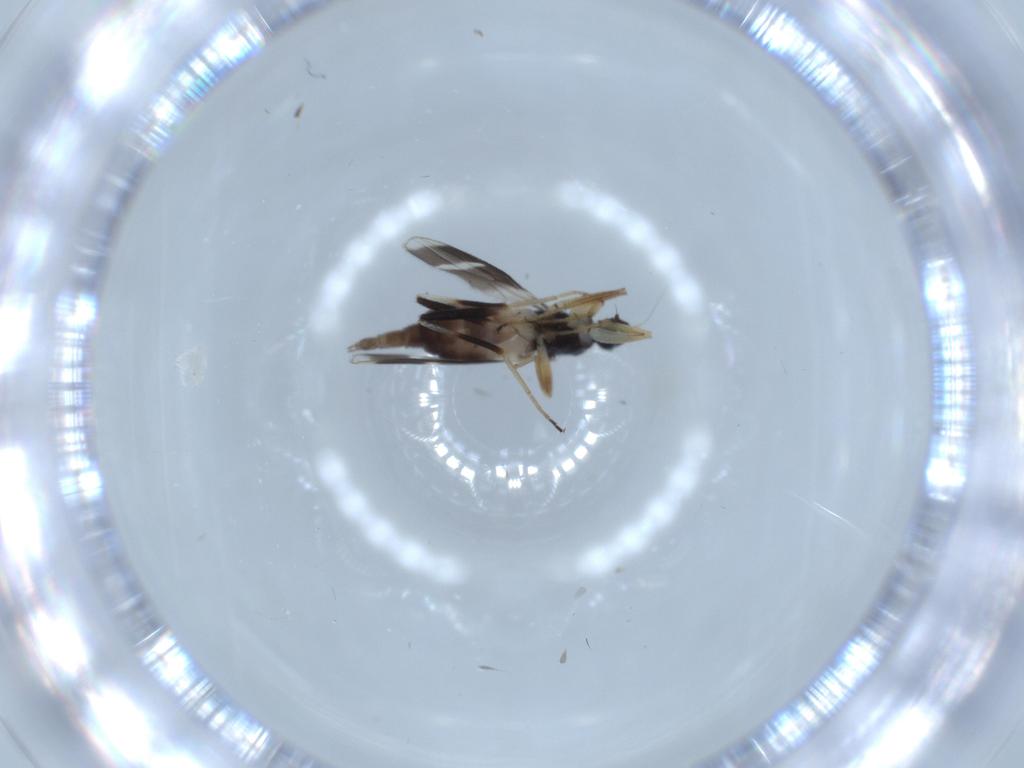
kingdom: Animalia
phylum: Arthropoda
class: Insecta
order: Diptera
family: Hybotidae
